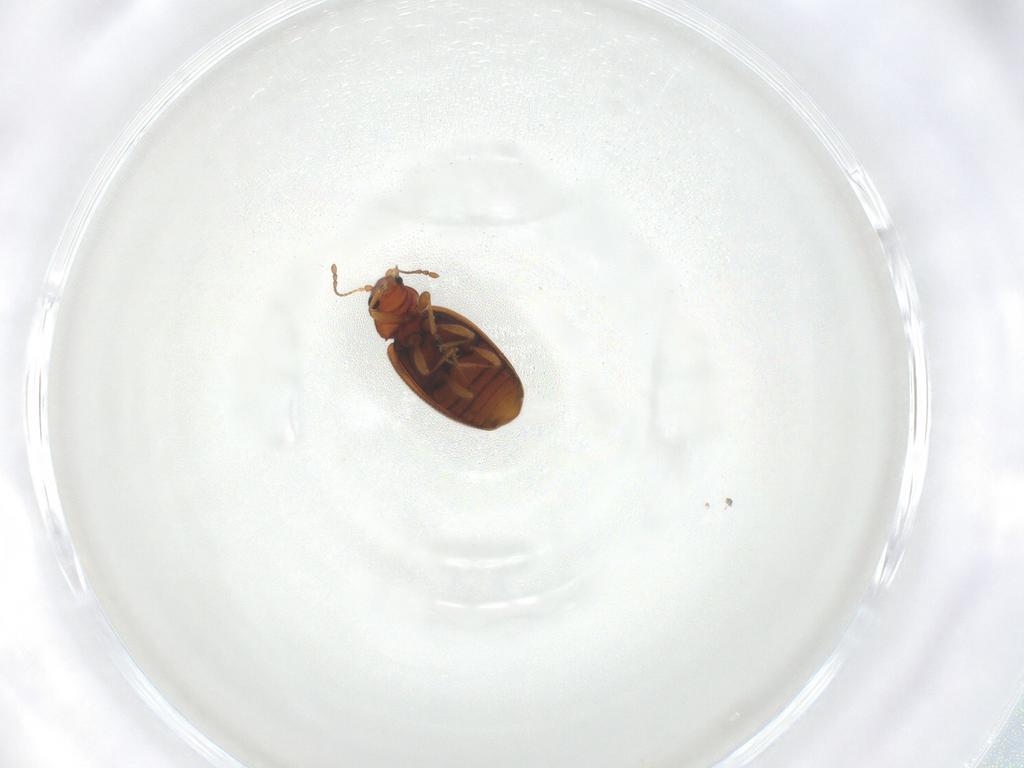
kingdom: Animalia
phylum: Arthropoda
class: Insecta
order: Coleoptera
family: Latridiidae
